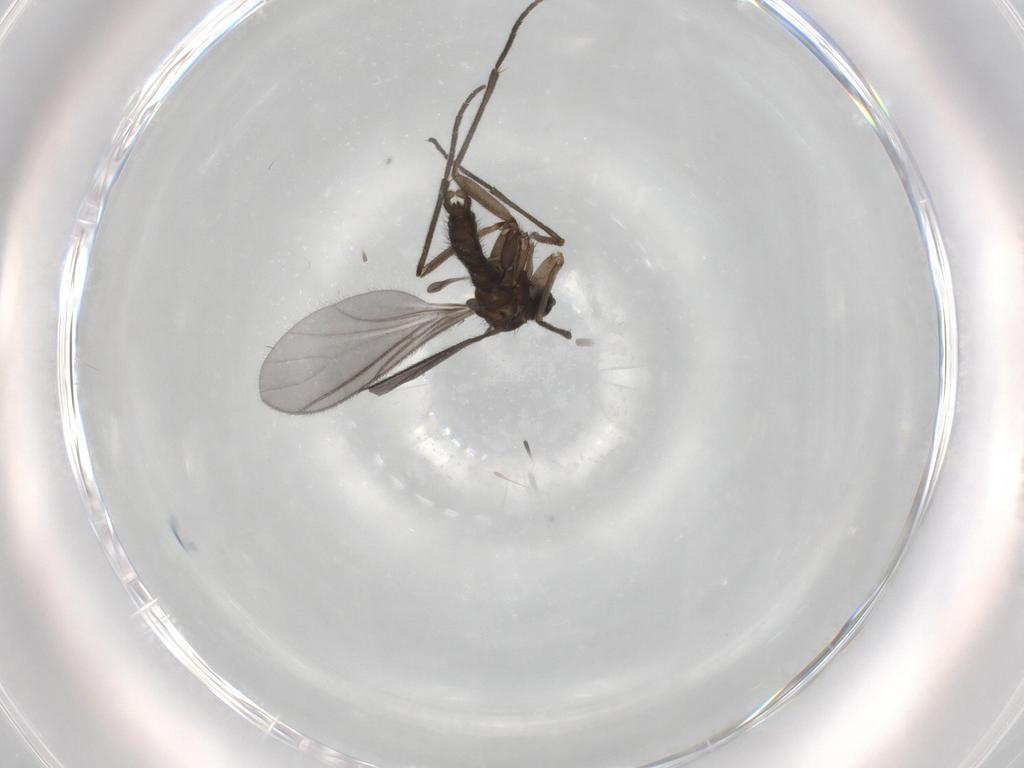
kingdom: Animalia
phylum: Arthropoda
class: Insecta
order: Diptera
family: Sciaridae
